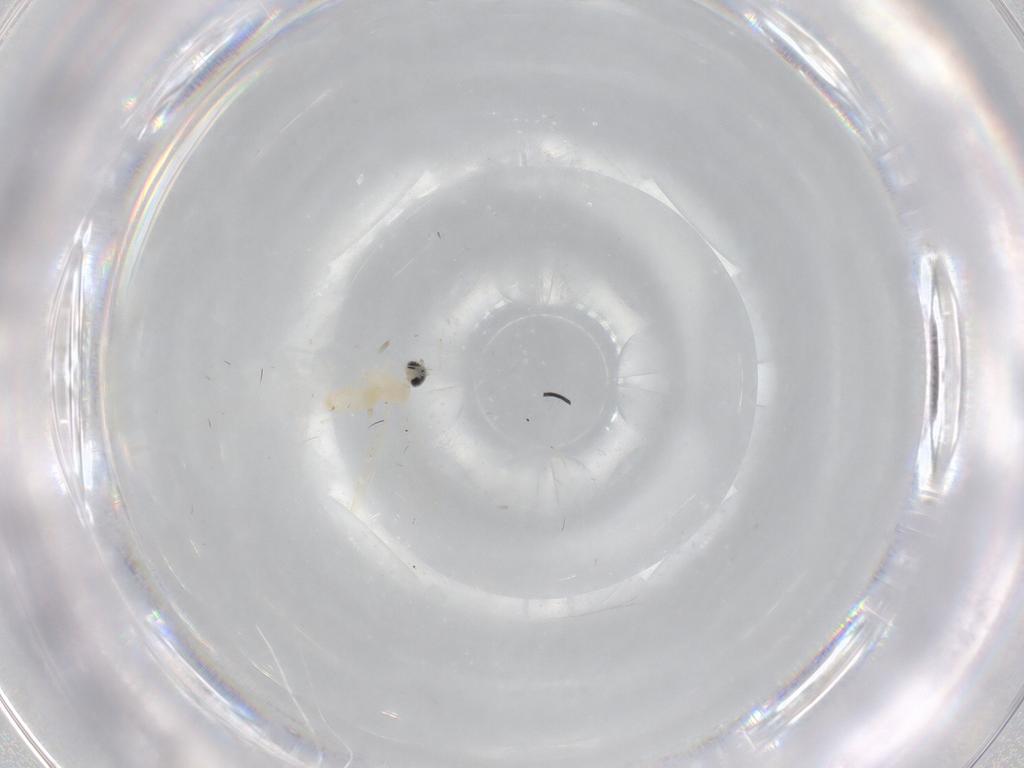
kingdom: Animalia
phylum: Arthropoda
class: Insecta
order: Diptera
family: Cecidomyiidae
